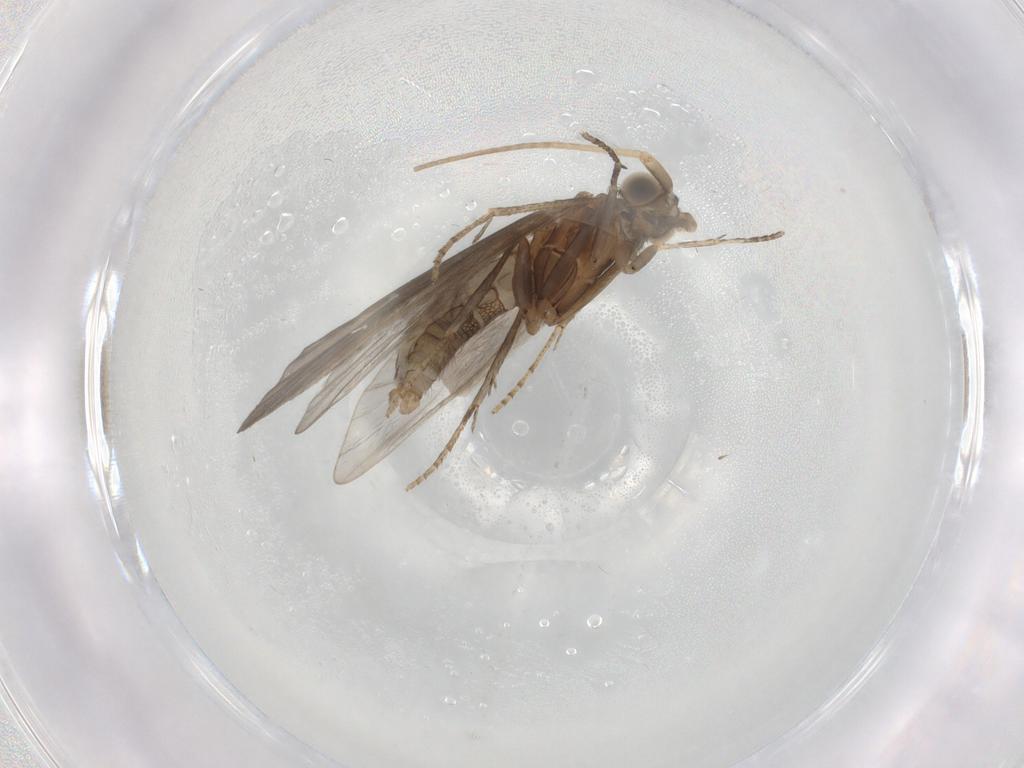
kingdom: Animalia
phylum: Arthropoda
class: Insecta
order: Trichoptera
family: Helicopsychidae
